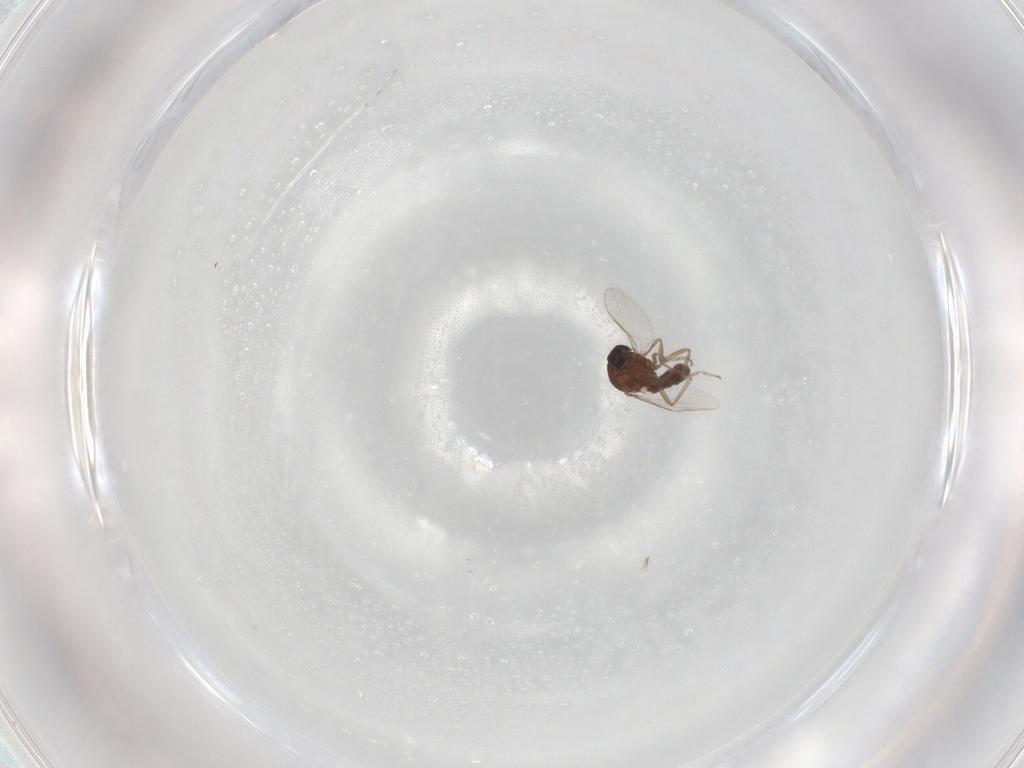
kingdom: Animalia
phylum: Arthropoda
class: Insecta
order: Diptera
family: Ceratopogonidae
